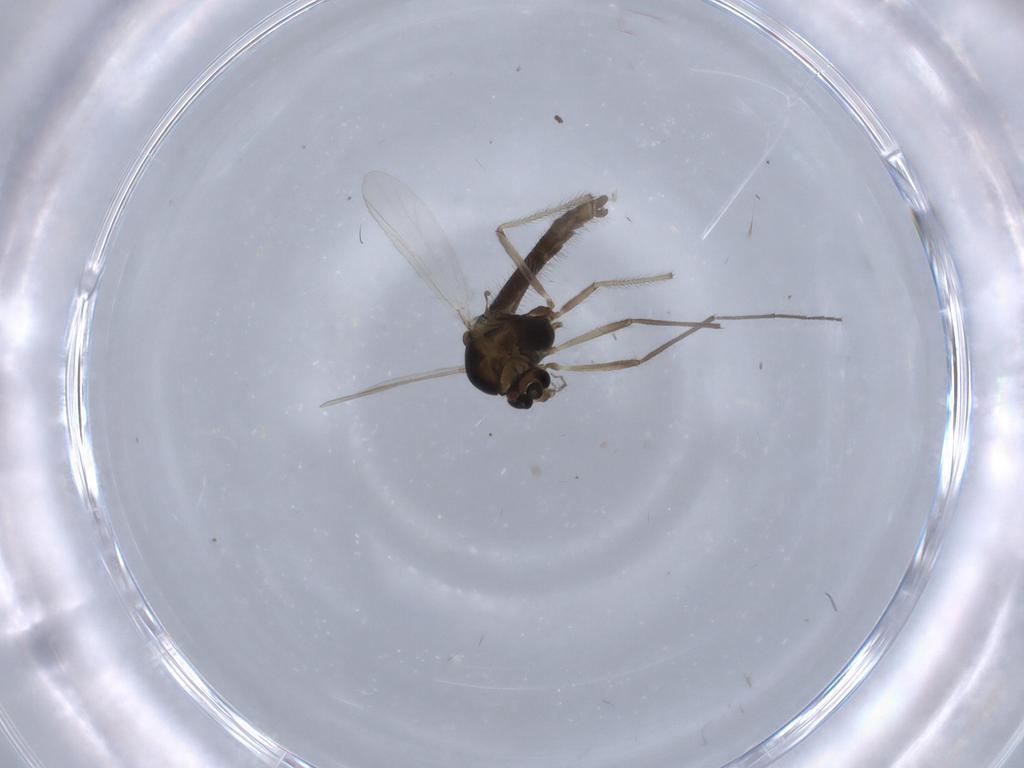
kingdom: Animalia
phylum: Arthropoda
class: Insecta
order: Diptera
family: Chironomidae
